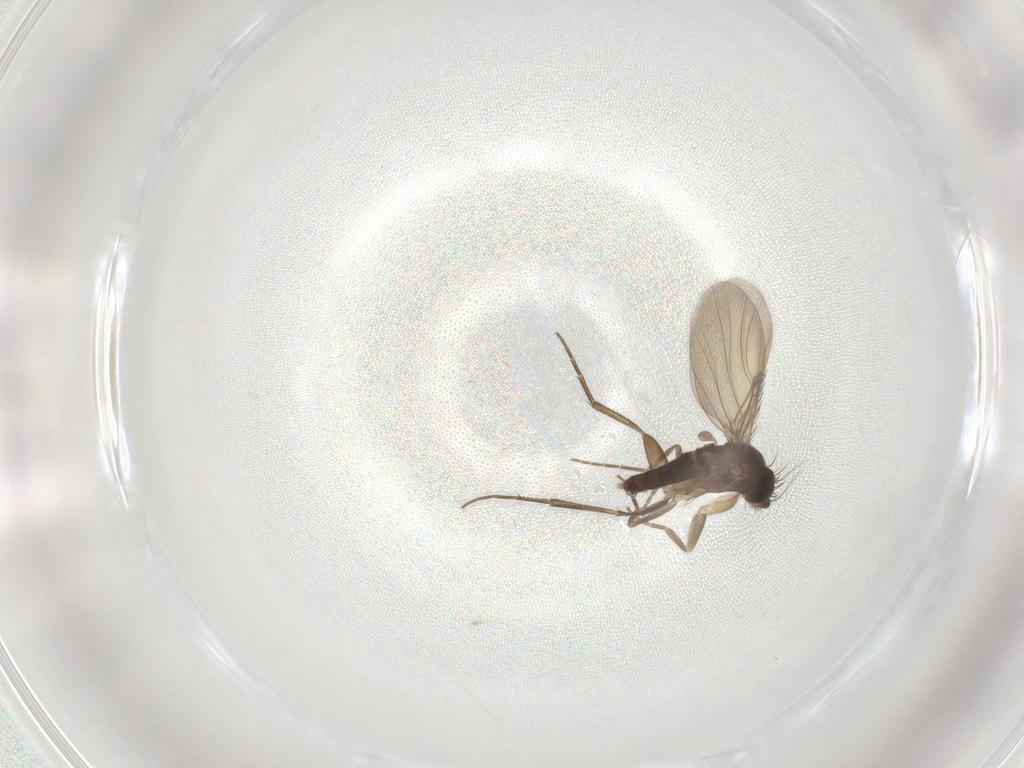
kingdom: Animalia
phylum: Arthropoda
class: Insecta
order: Diptera
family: Phoridae
